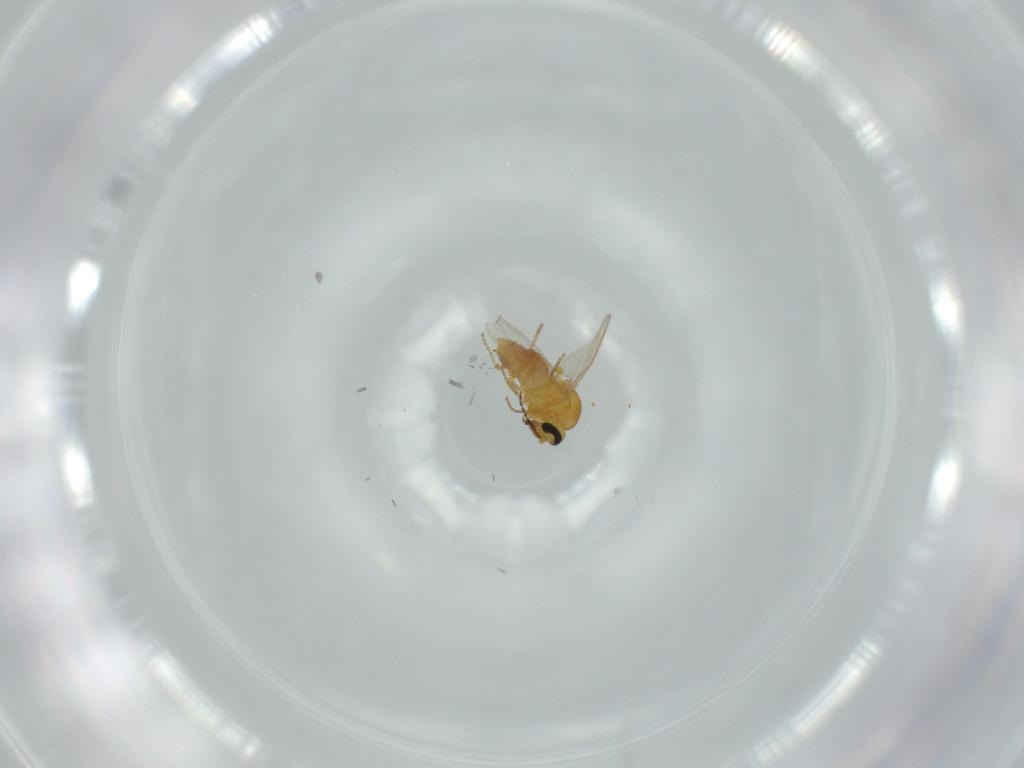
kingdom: Animalia
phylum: Arthropoda
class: Insecta
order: Diptera
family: Ceratopogonidae
